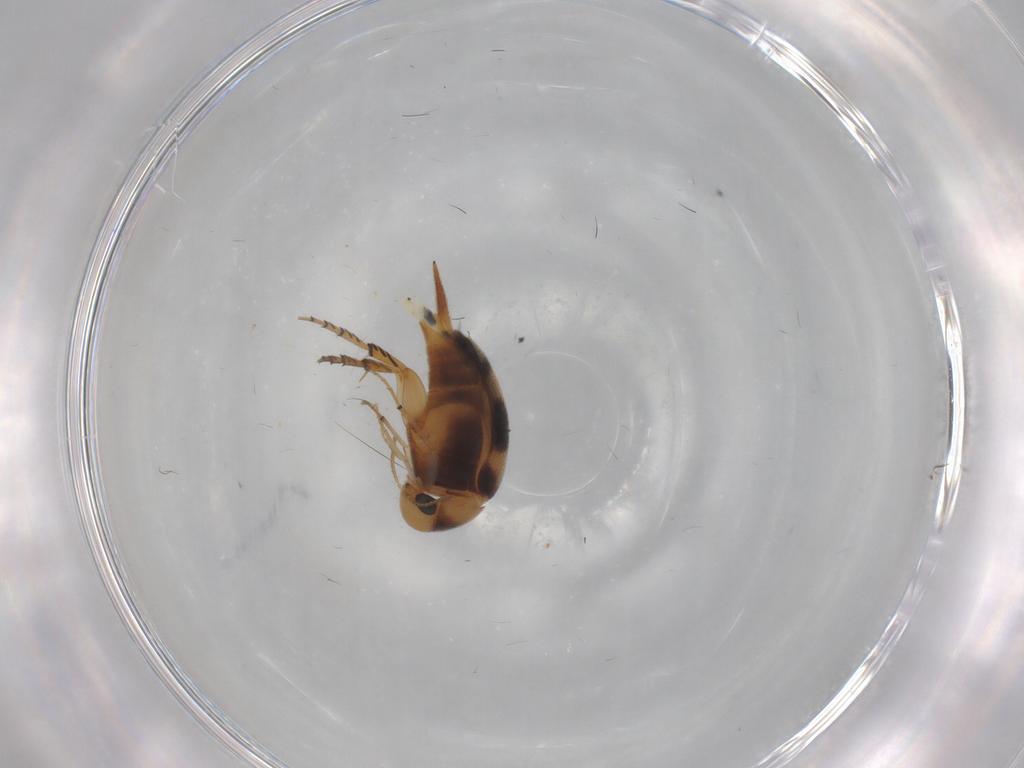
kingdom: Animalia
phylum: Arthropoda
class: Insecta
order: Coleoptera
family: Mordellidae
